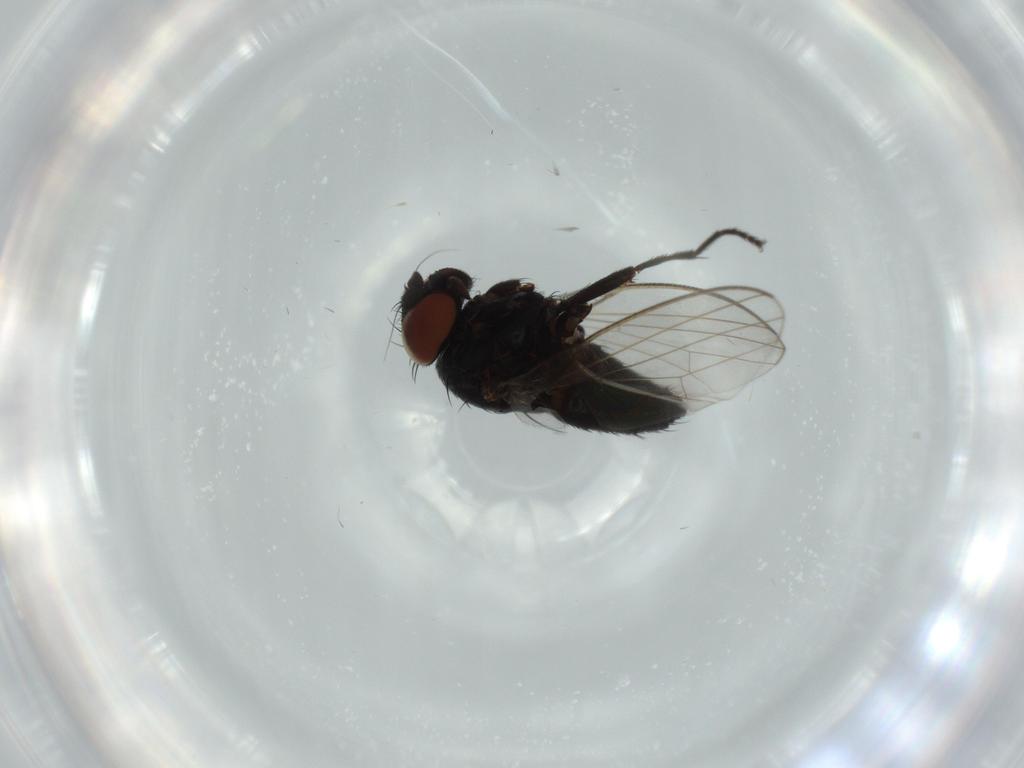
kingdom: Animalia
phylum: Arthropoda
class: Insecta
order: Diptera
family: Milichiidae
